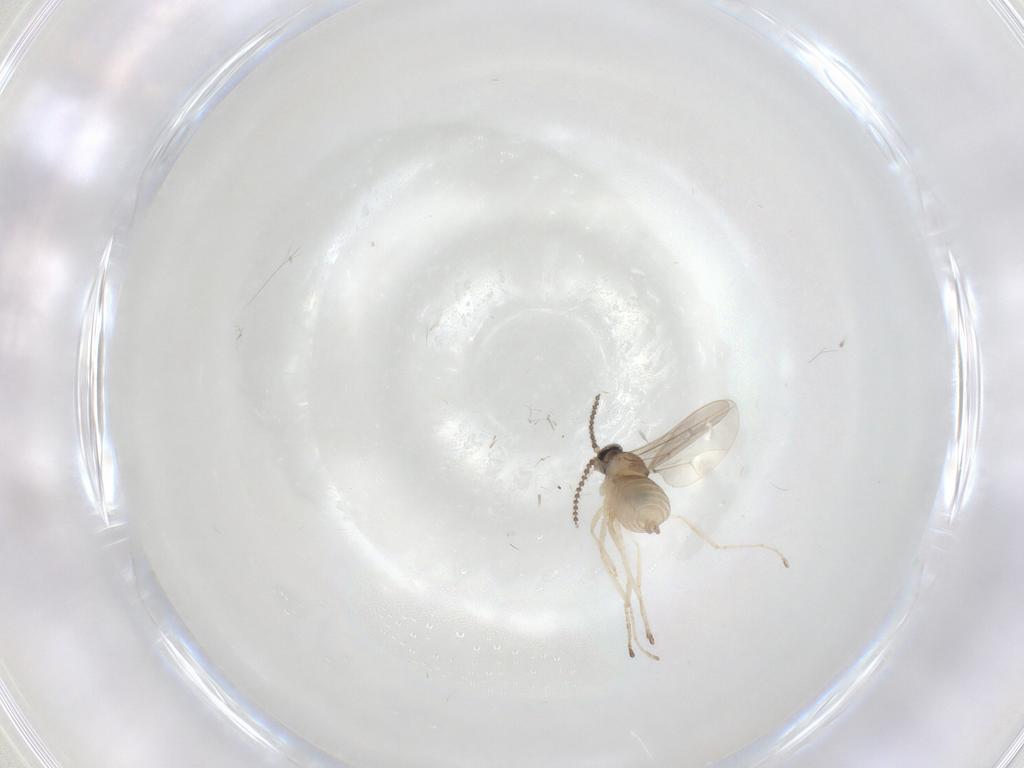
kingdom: Animalia
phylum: Arthropoda
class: Insecta
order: Diptera
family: Cecidomyiidae
